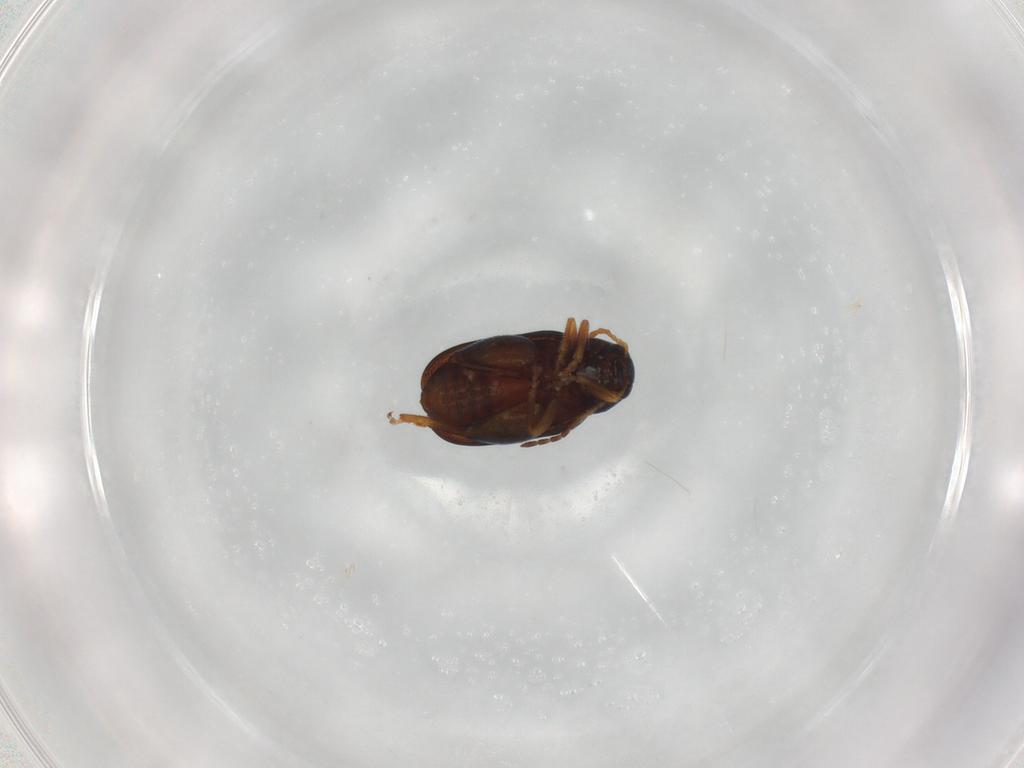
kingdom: Animalia
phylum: Arthropoda
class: Insecta
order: Coleoptera
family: Chrysomelidae
